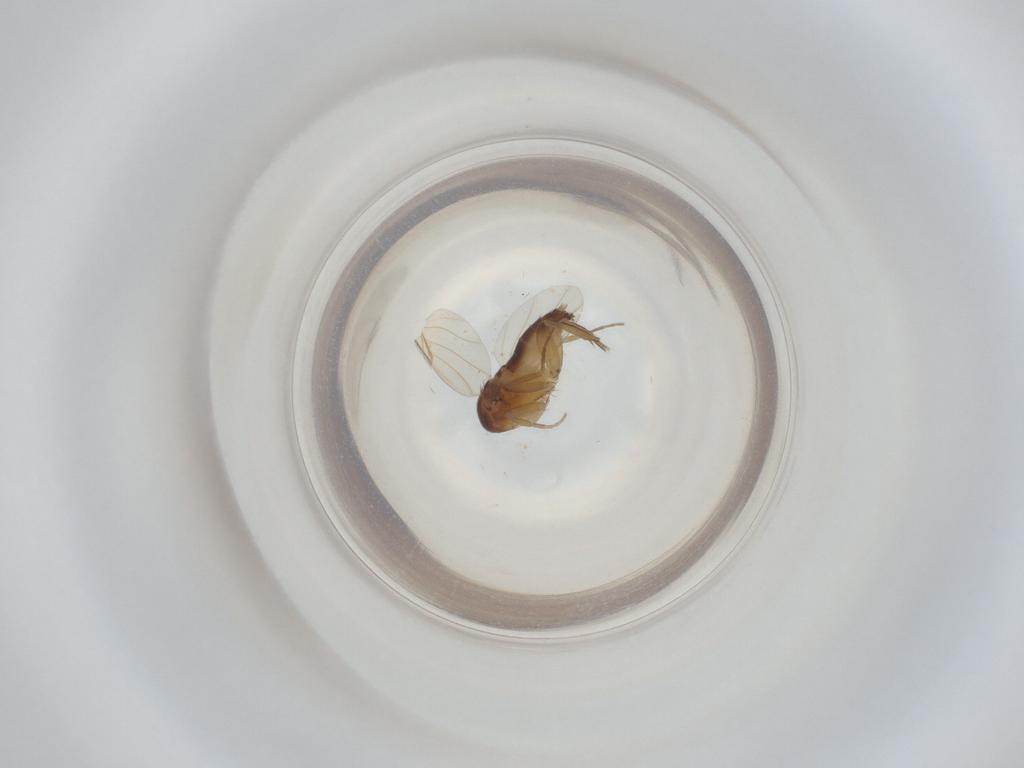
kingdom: Animalia
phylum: Arthropoda
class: Insecta
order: Diptera
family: Phoridae
